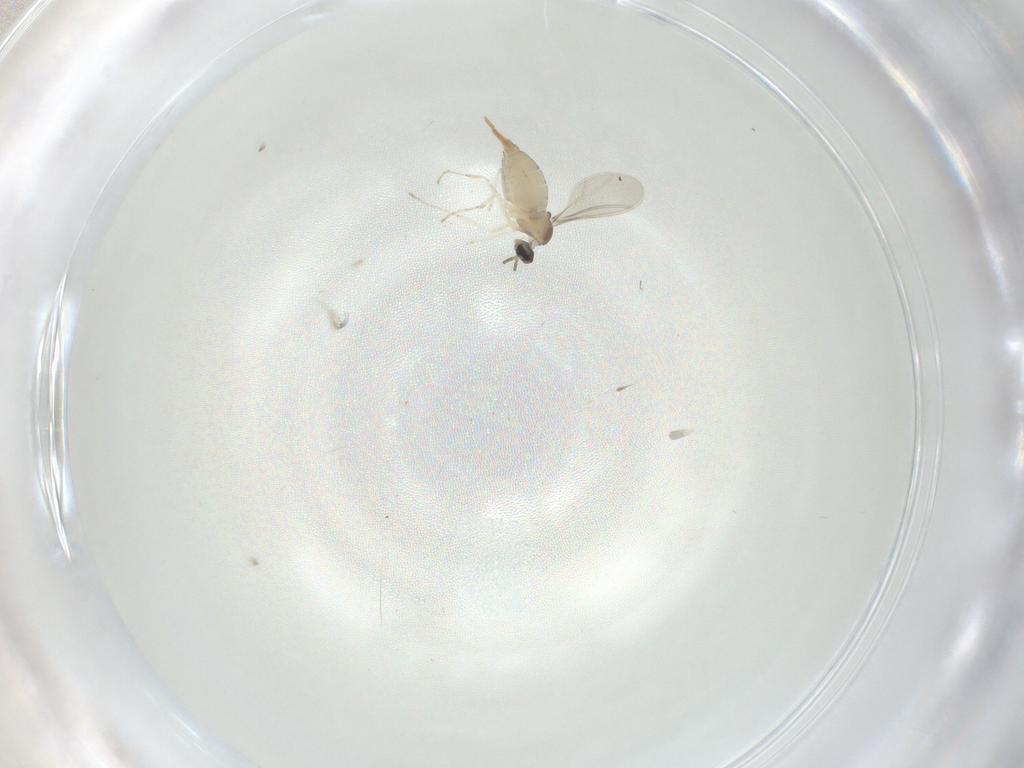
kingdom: Animalia
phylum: Arthropoda
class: Insecta
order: Diptera
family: Cecidomyiidae
